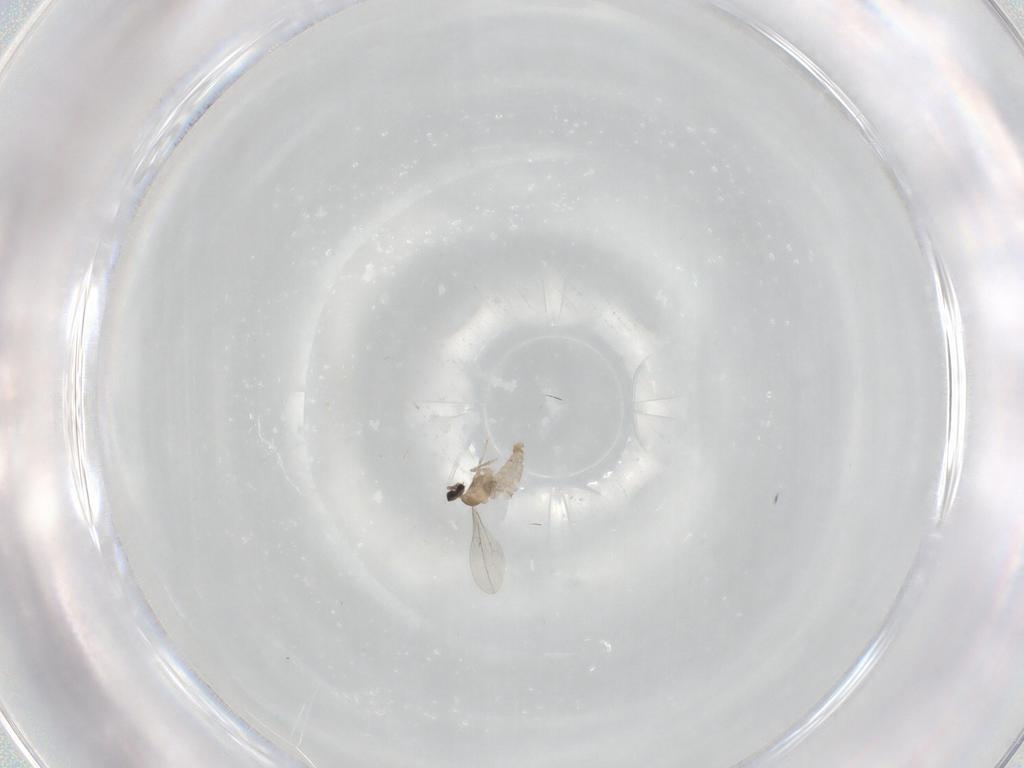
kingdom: Animalia
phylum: Arthropoda
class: Insecta
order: Diptera
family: Cecidomyiidae
